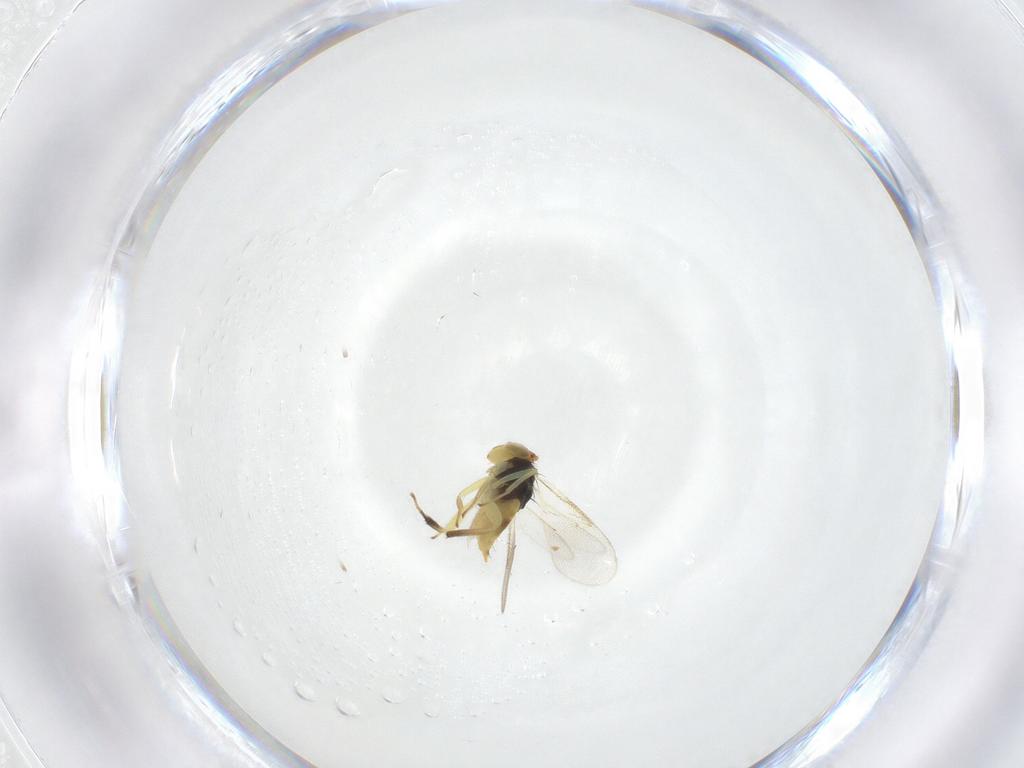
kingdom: Animalia
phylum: Arthropoda
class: Insecta
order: Hymenoptera
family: Aphelinidae
